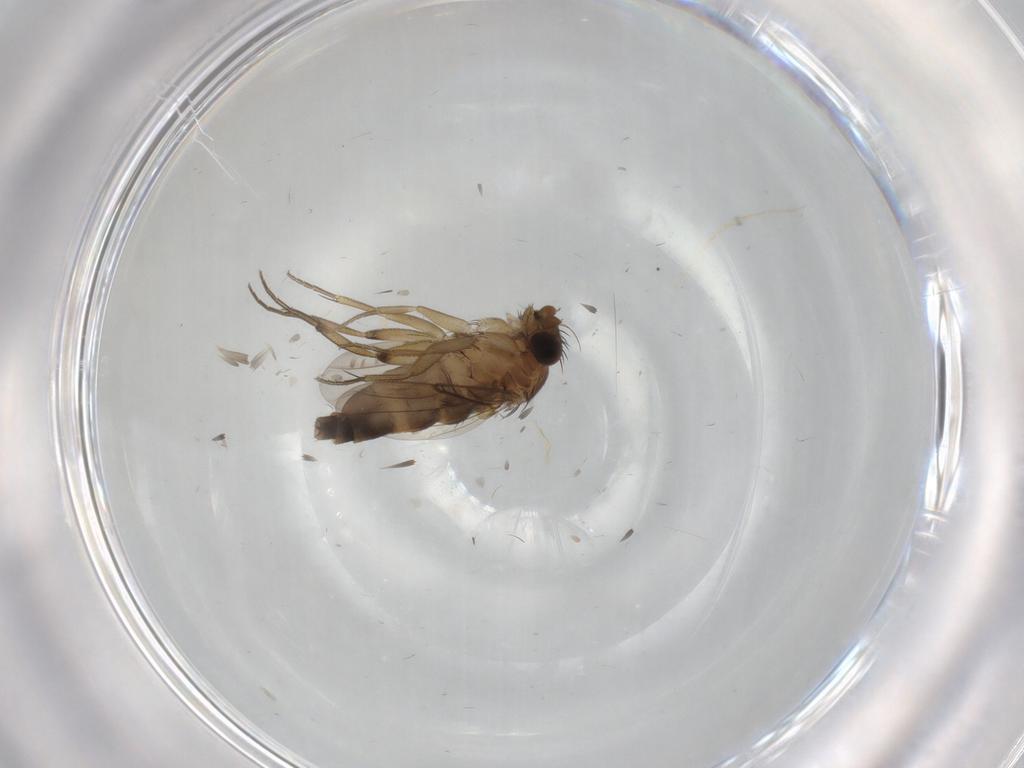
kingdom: Animalia
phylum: Arthropoda
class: Insecta
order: Diptera
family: Phoridae
